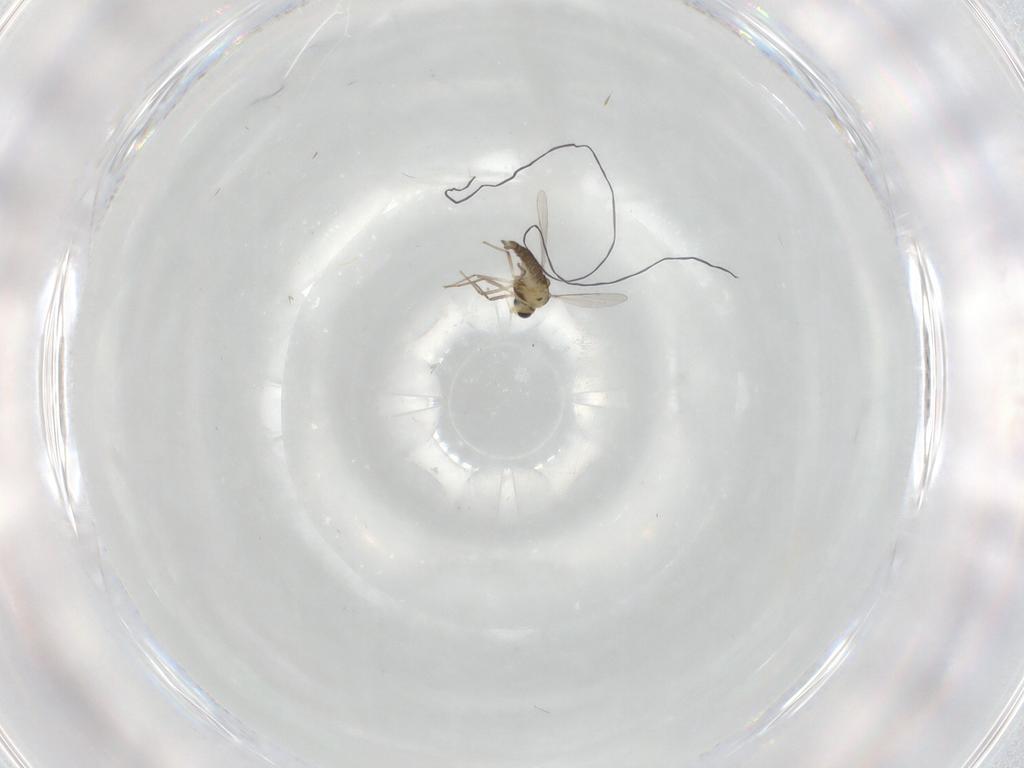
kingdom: Animalia
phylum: Arthropoda
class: Insecta
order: Diptera
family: Chironomidae
